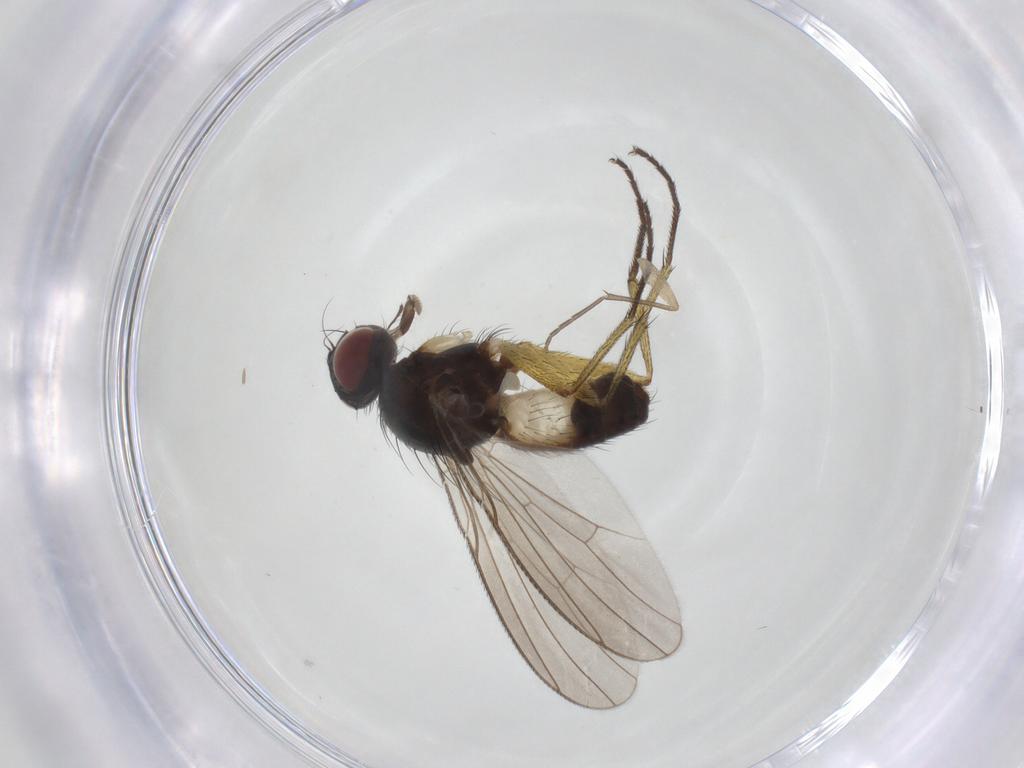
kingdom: Animalia
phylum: Arthropoda
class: Insecta
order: Diptera
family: Muscidae
